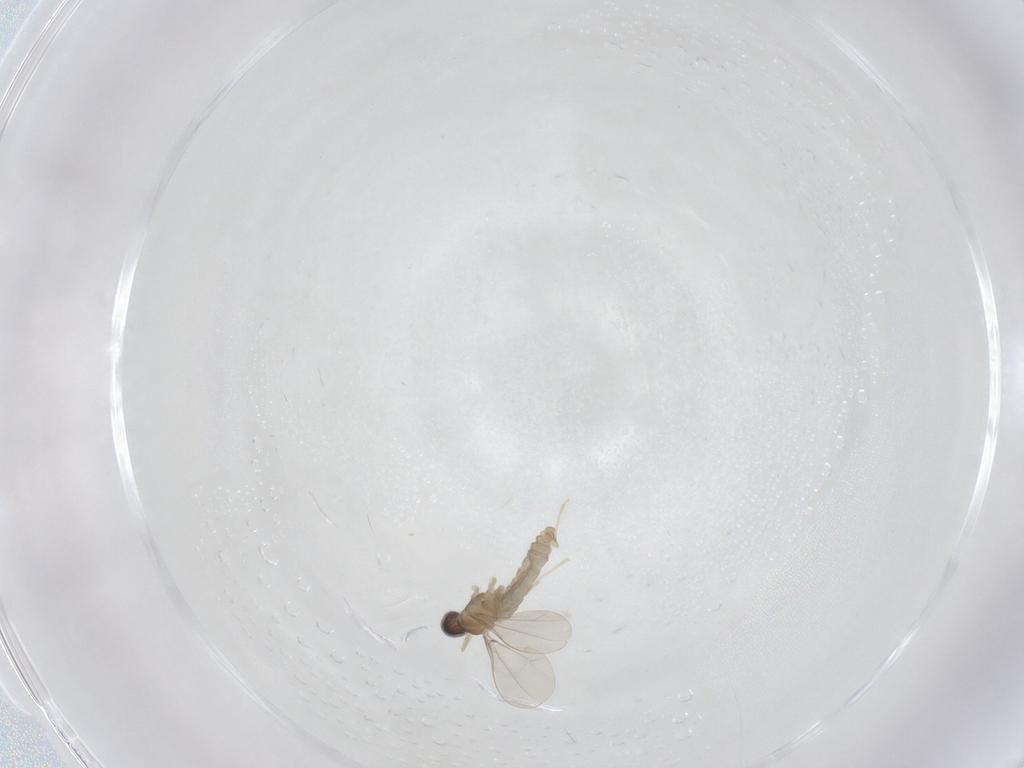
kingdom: Animalia
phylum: Arthropoda
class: Insecta
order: Diptera
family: Cecidomyiidae
